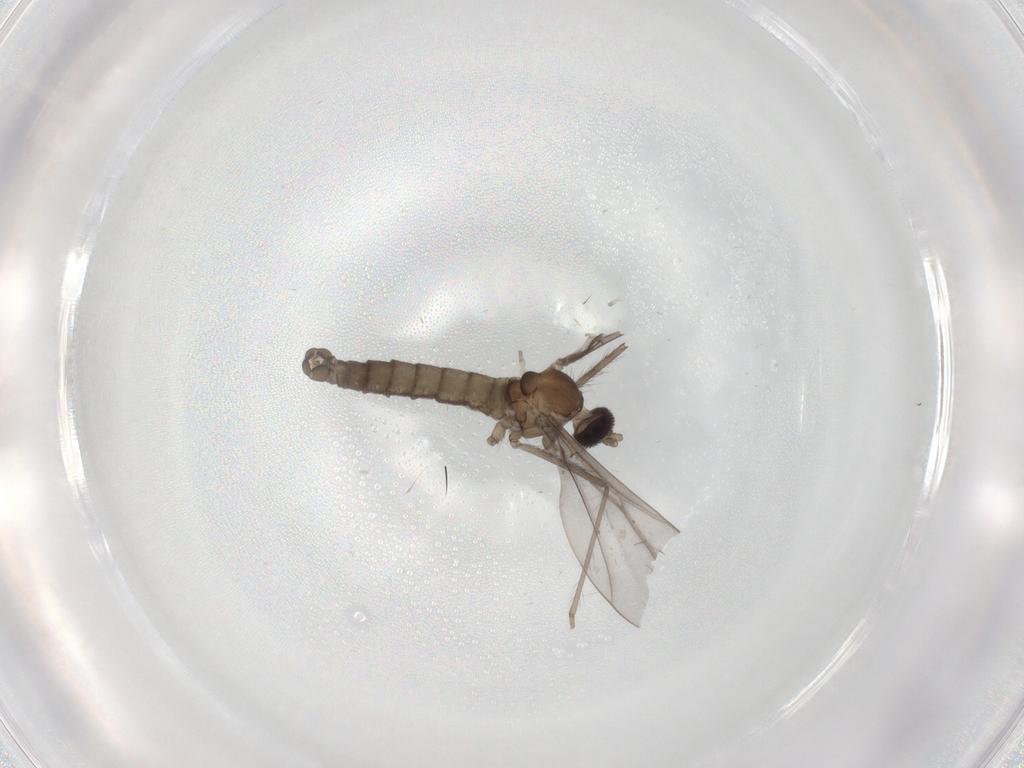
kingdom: Animalia
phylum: Arthropoda
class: Insecta
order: Diptera
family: Cecidomyiidae
